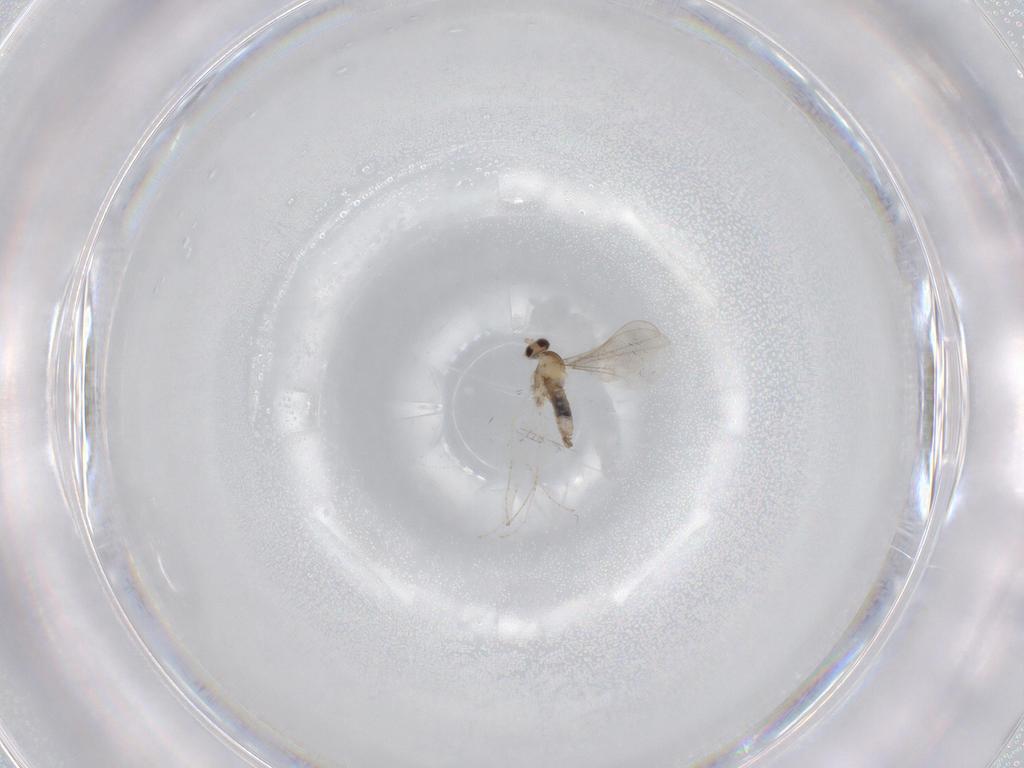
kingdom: Animalia
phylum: Arthropoda
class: Insecta
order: Diptera
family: Cecidomyiidae
